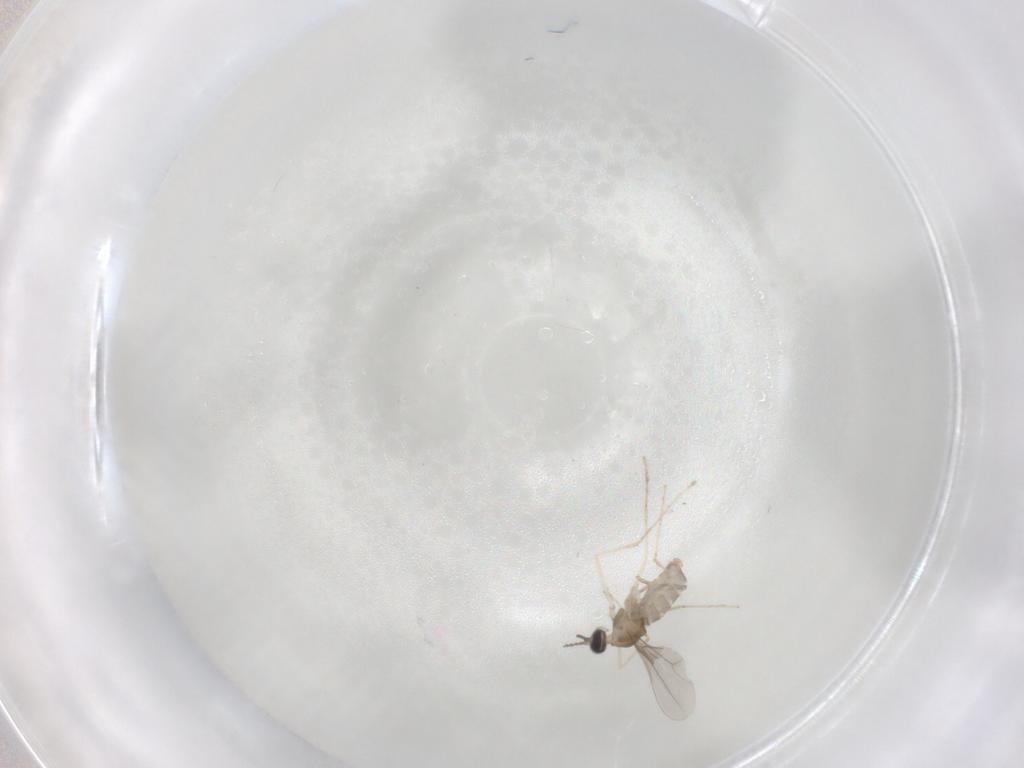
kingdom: Animalia
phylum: Arthropoda
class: Insecta
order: Diptera
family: Cecidomyiidae
